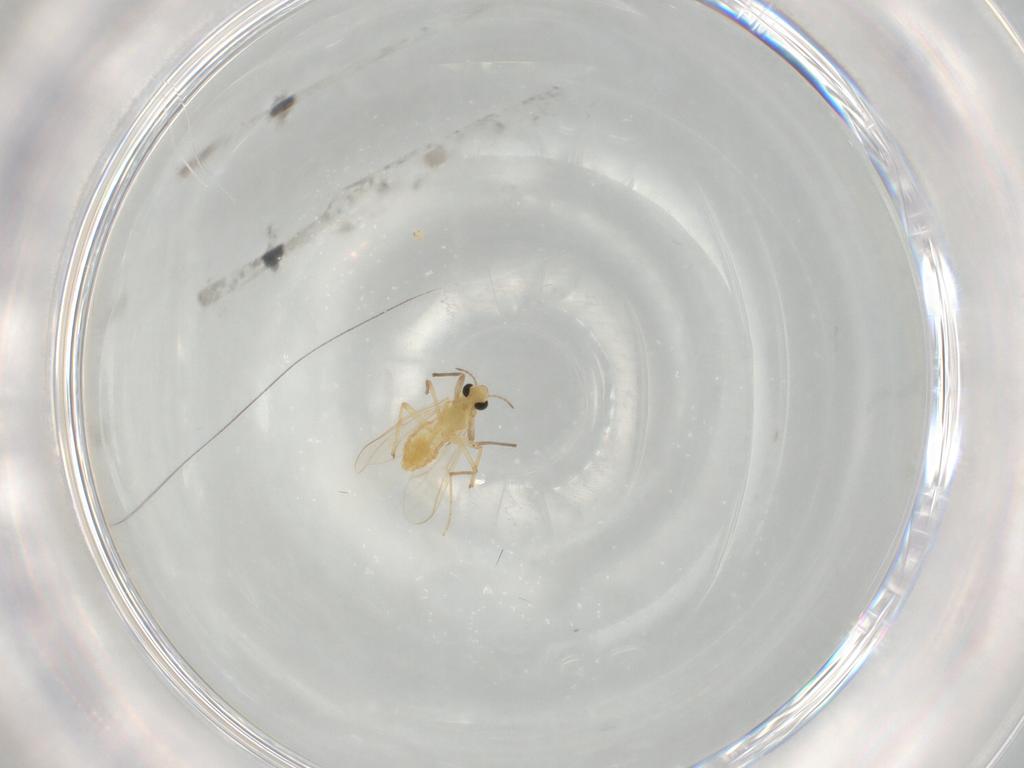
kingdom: Animalia
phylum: Arthropoda
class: Insecta
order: Diptera
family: Chironomidae
